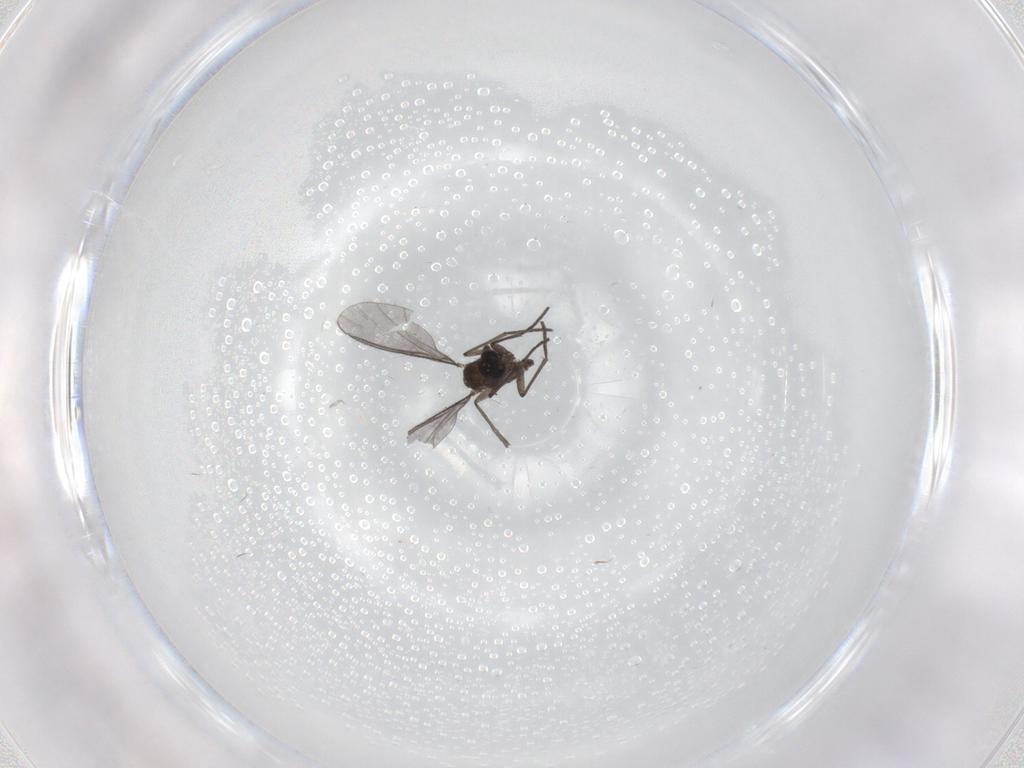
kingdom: Animalia
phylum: Arthropoda
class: Insecta
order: Diptera
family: Sciaridae
